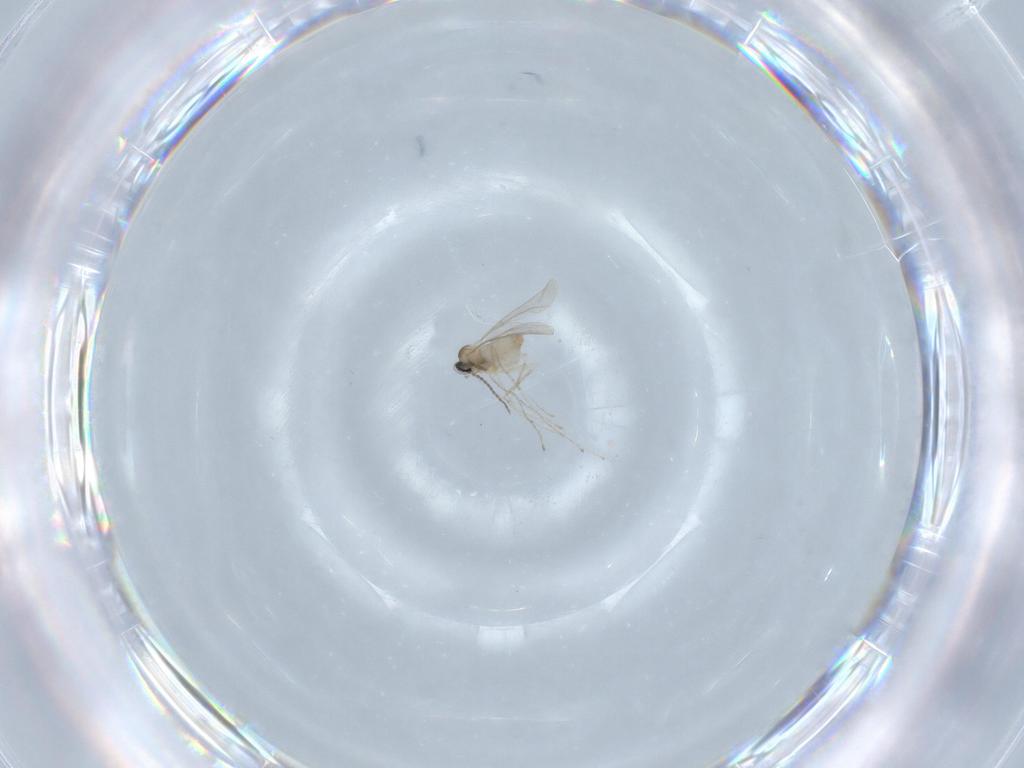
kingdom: Animalia
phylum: Arthropoda
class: Insecta
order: Diptera
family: Cecidomyiidae
